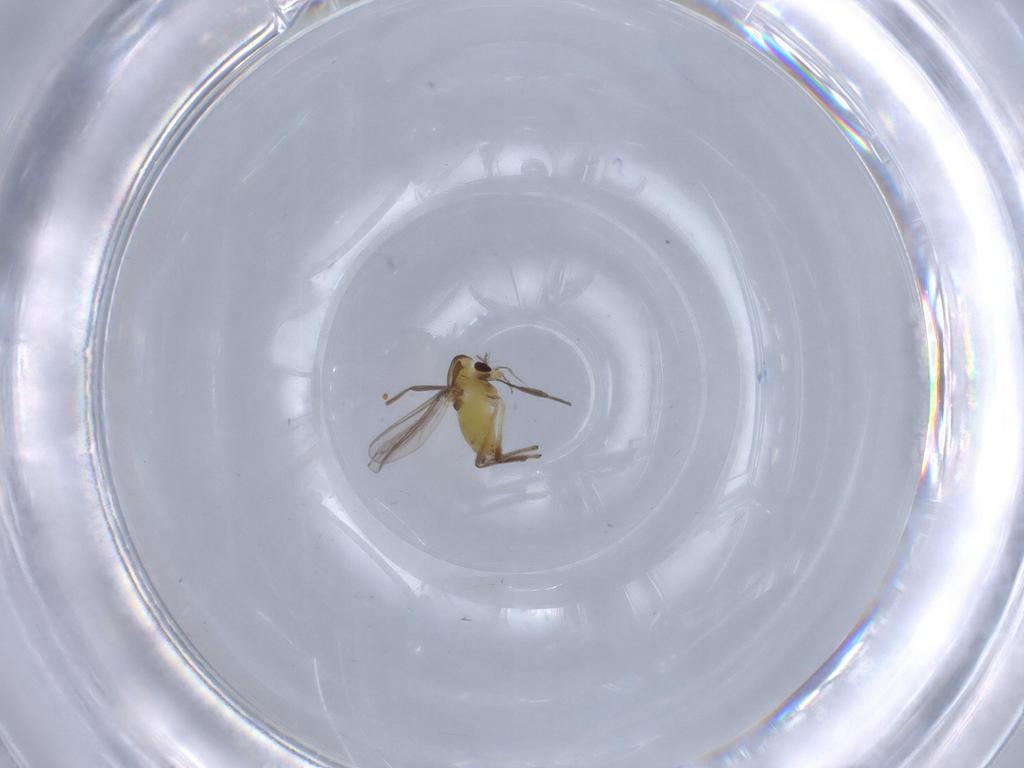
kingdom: Animalia
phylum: Arthropoda
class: Insecta
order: Diptera
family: Chironomidae
